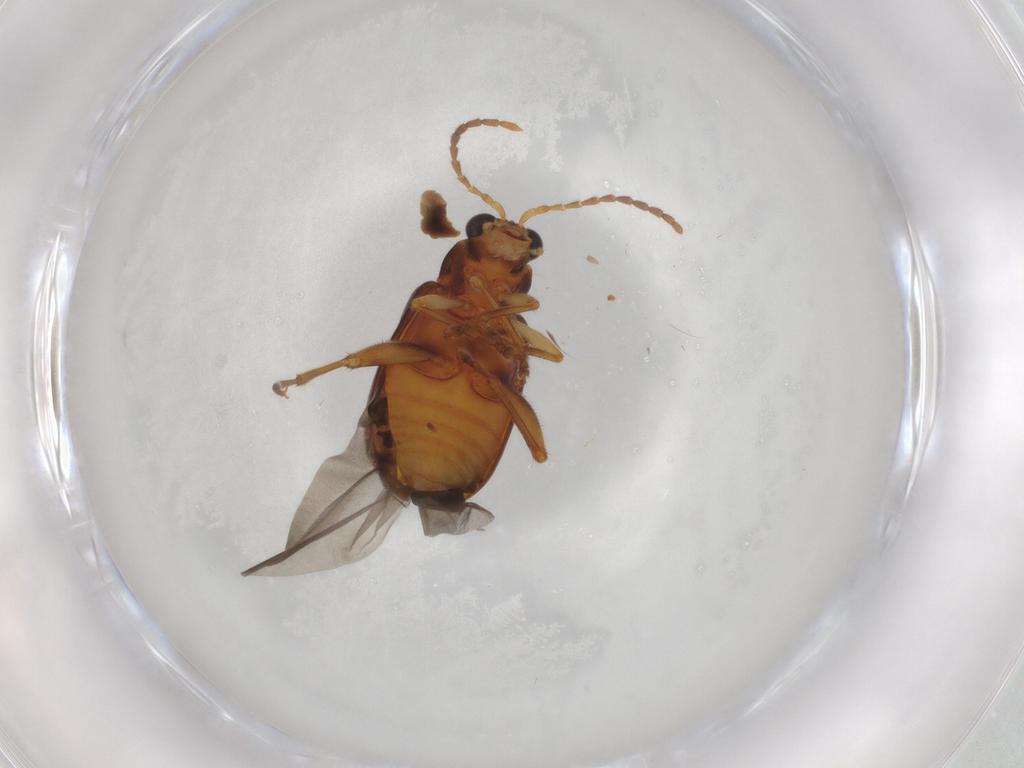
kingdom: Animalia
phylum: Arthropoda
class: Insecta
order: Coleoptera
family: Chrysomelidae
